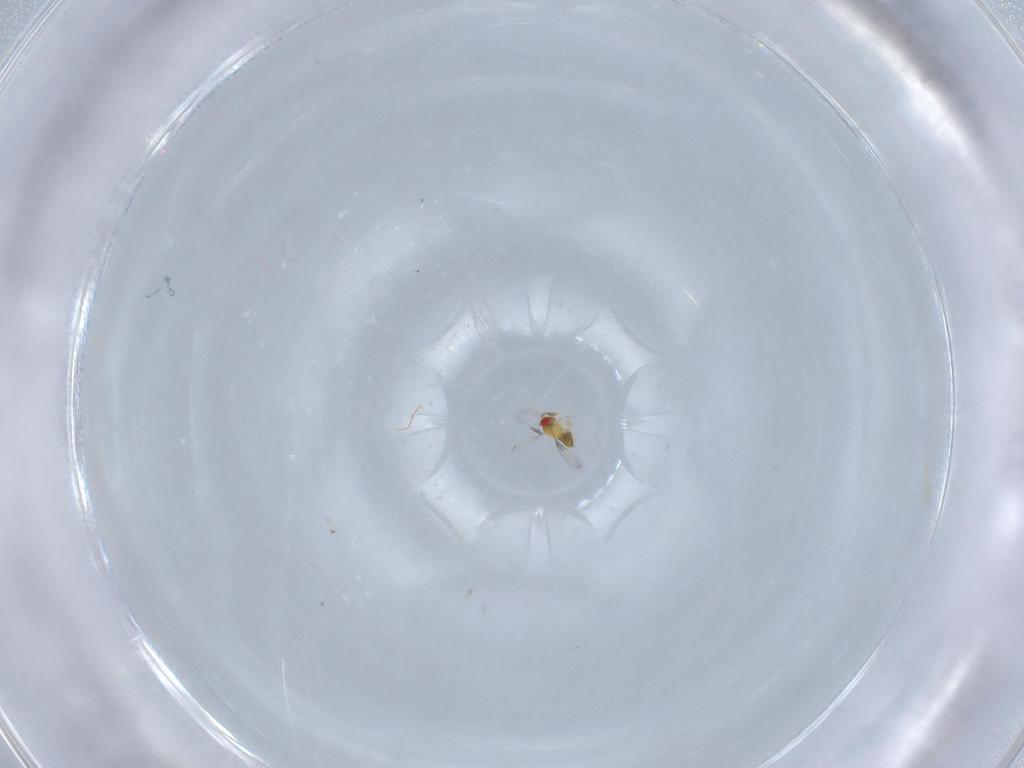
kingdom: Animalia
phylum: Arthropoda
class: Insecta
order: Hymenoptera
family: Trichogrammatidae
